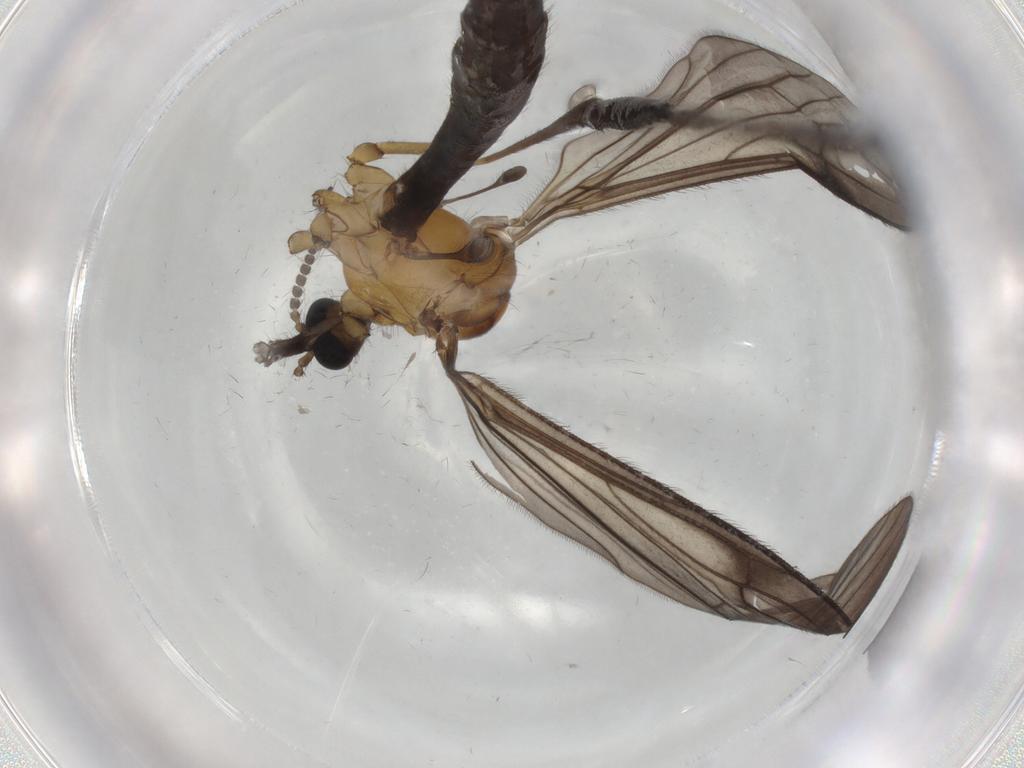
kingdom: Animalia
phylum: Arthropoda
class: Insecta
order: Diptera
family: Limoniidae
